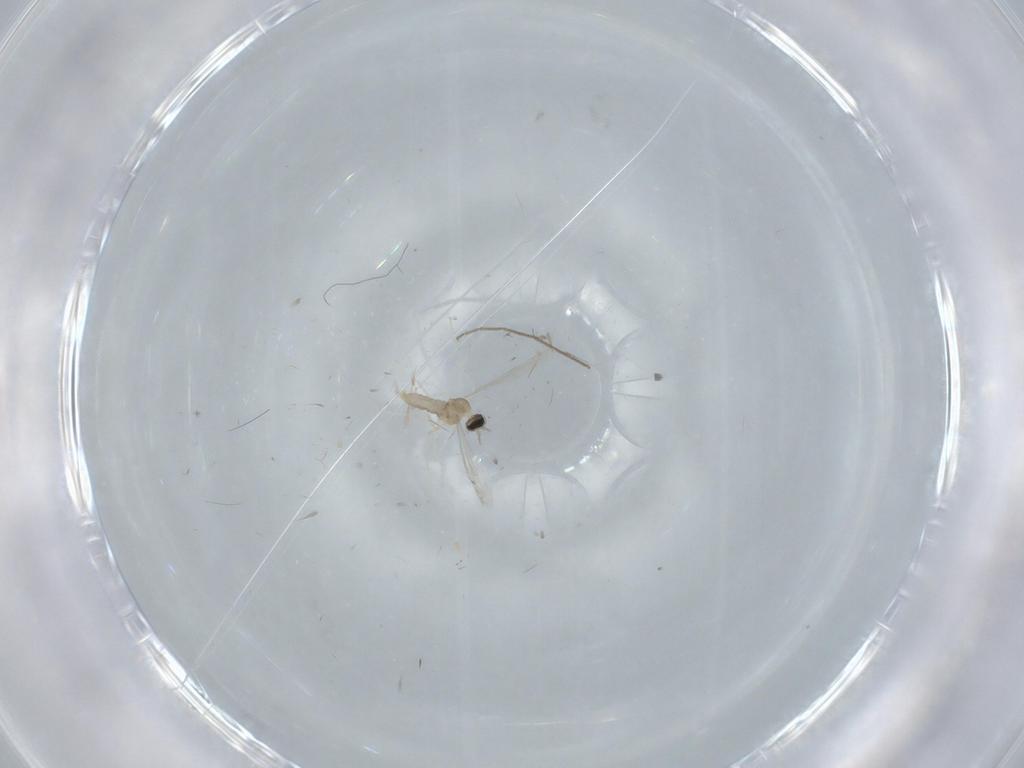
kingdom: Animalia
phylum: Arthropoda
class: Insecta
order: Diptera
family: Chironomidae
